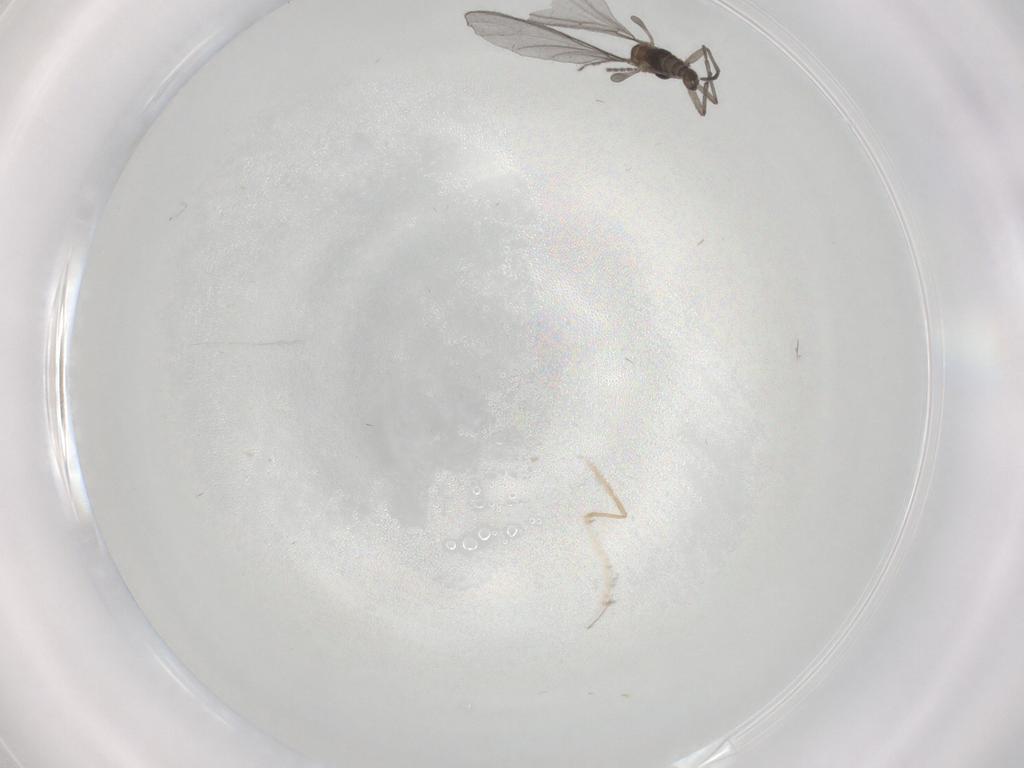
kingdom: Animalia
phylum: Arthropoda
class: Insecta
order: Diptera
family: Sciaridae
